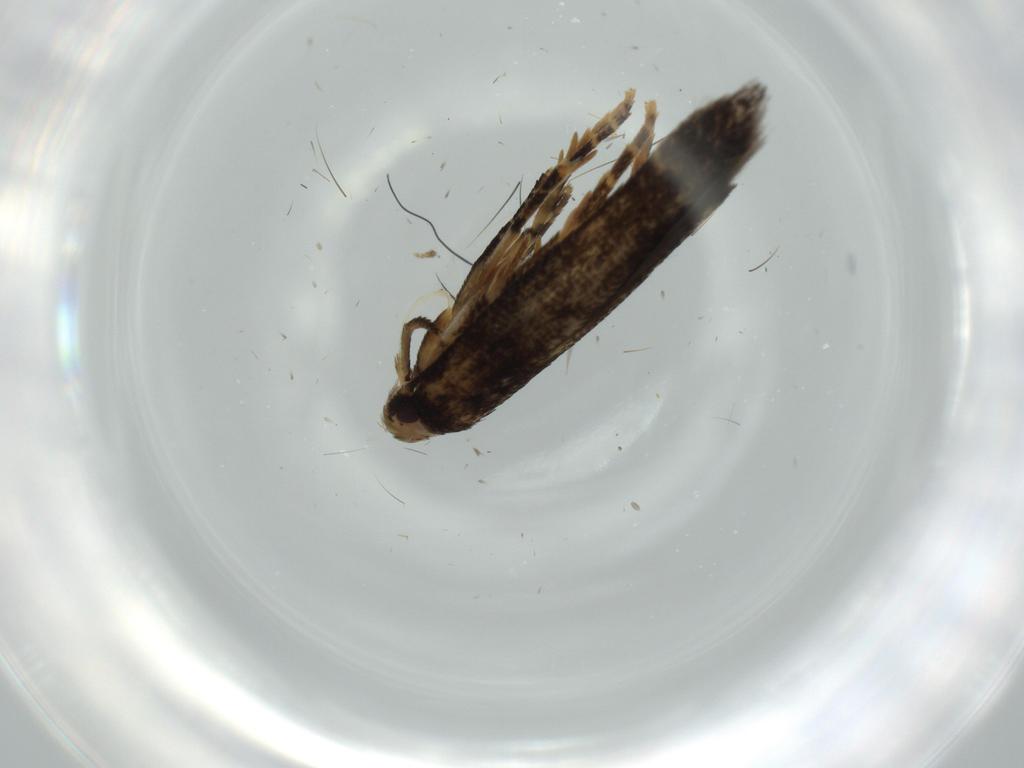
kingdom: Animalia
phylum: Arthropoda
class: Insecta
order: Lepidoptera
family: Cosmopterigidae
